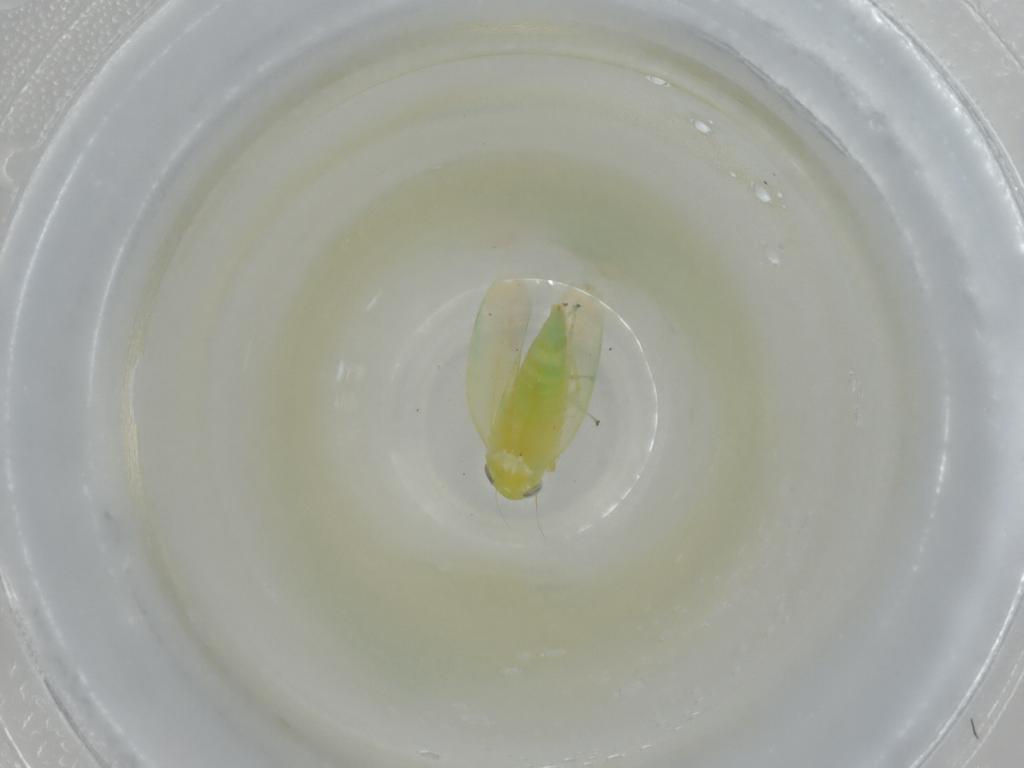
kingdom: Animalia
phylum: Arthropoda
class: Insecta
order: Hemiptera
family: Cicadellidae
